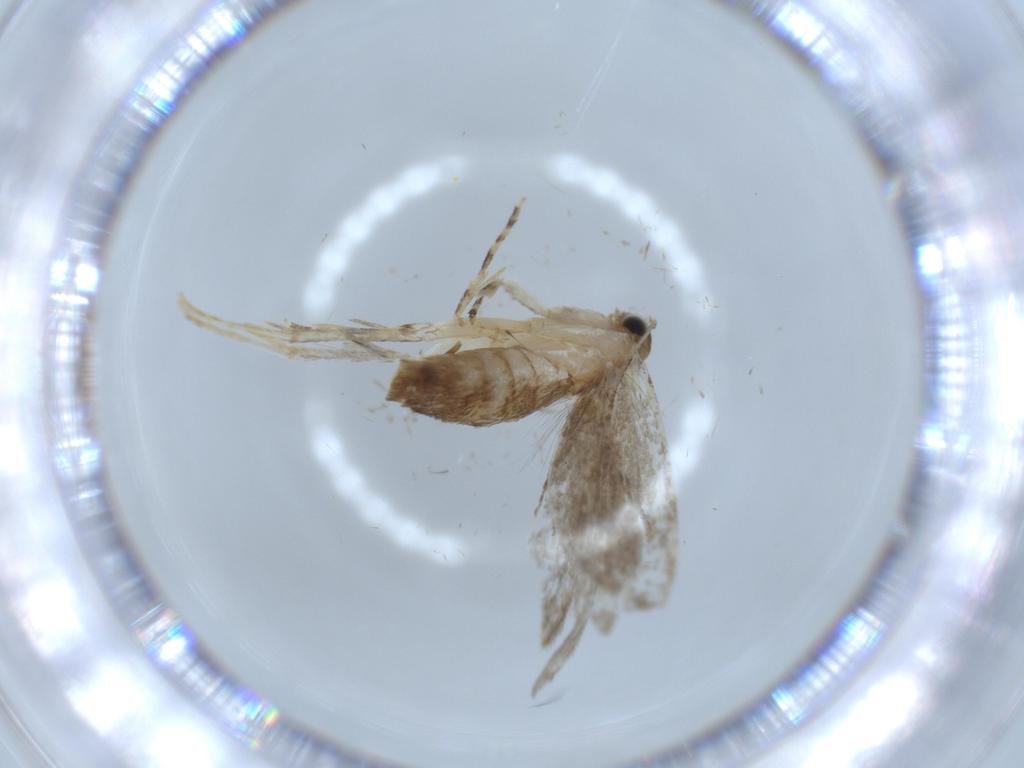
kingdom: Animalia
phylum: Arthropoda
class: Insecta
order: Lepidoptera
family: Tineidae
